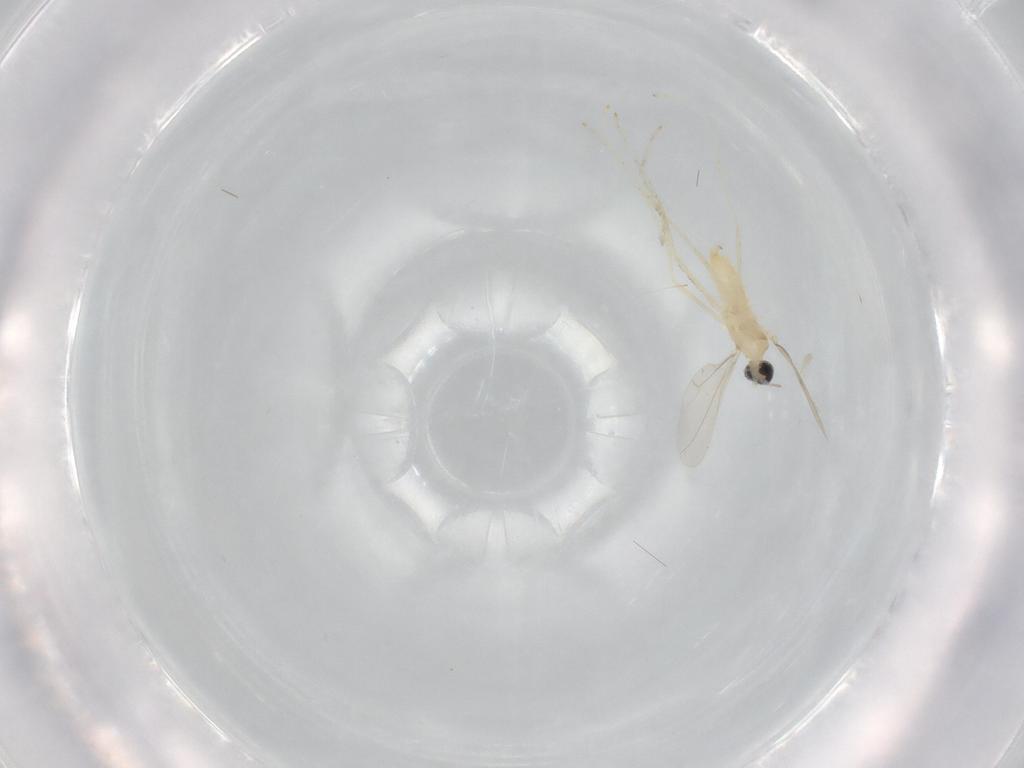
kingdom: Animalia
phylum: Arthropoda
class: Insecta
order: Diptera
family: Cecidomyiidae
